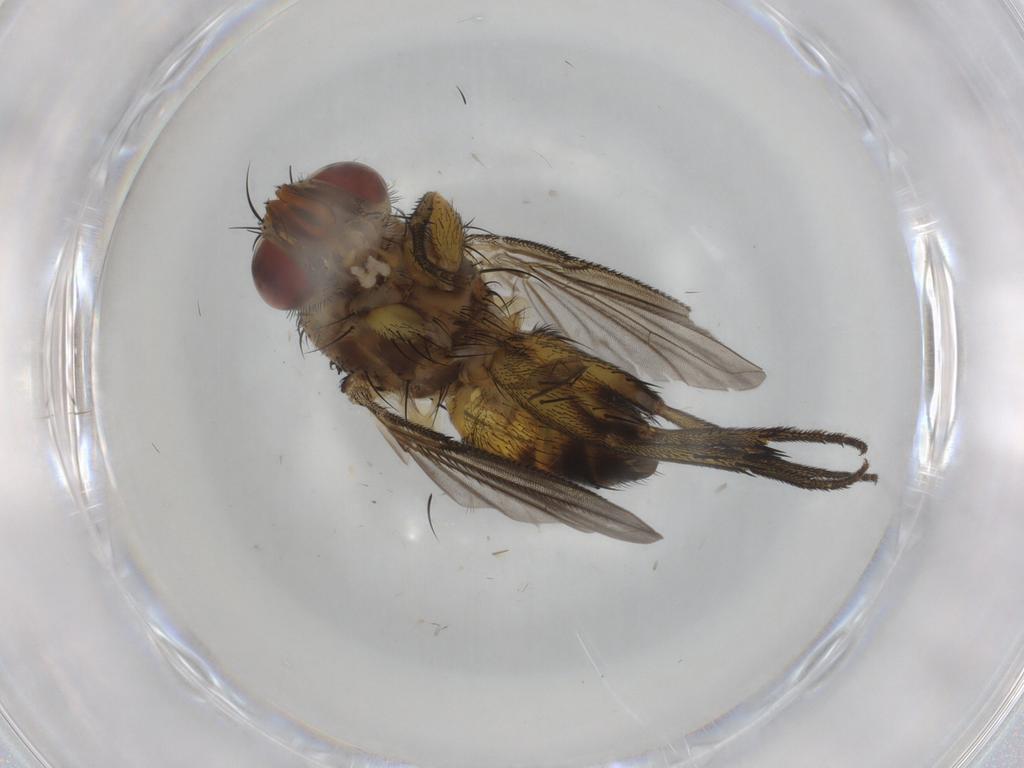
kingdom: Animalia
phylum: Arthropoda
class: Insecta
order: Diptera
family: Tachinidae
